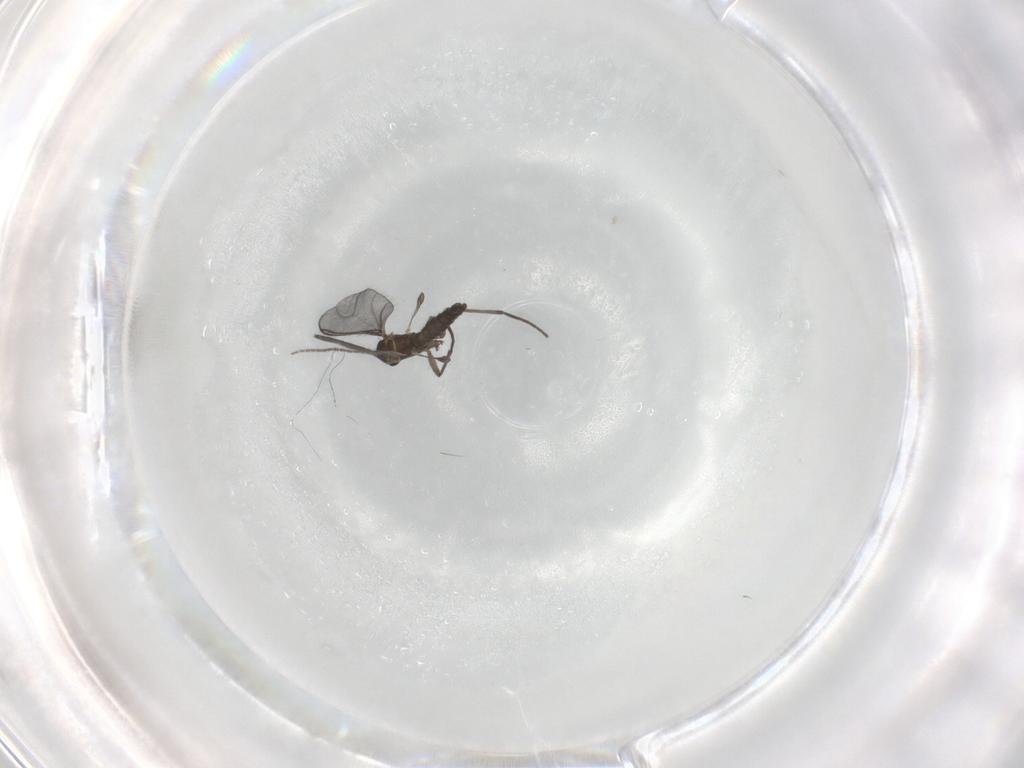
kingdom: Animalia
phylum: Arthropoda
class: Insecta
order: Diptera
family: Sciaridae
